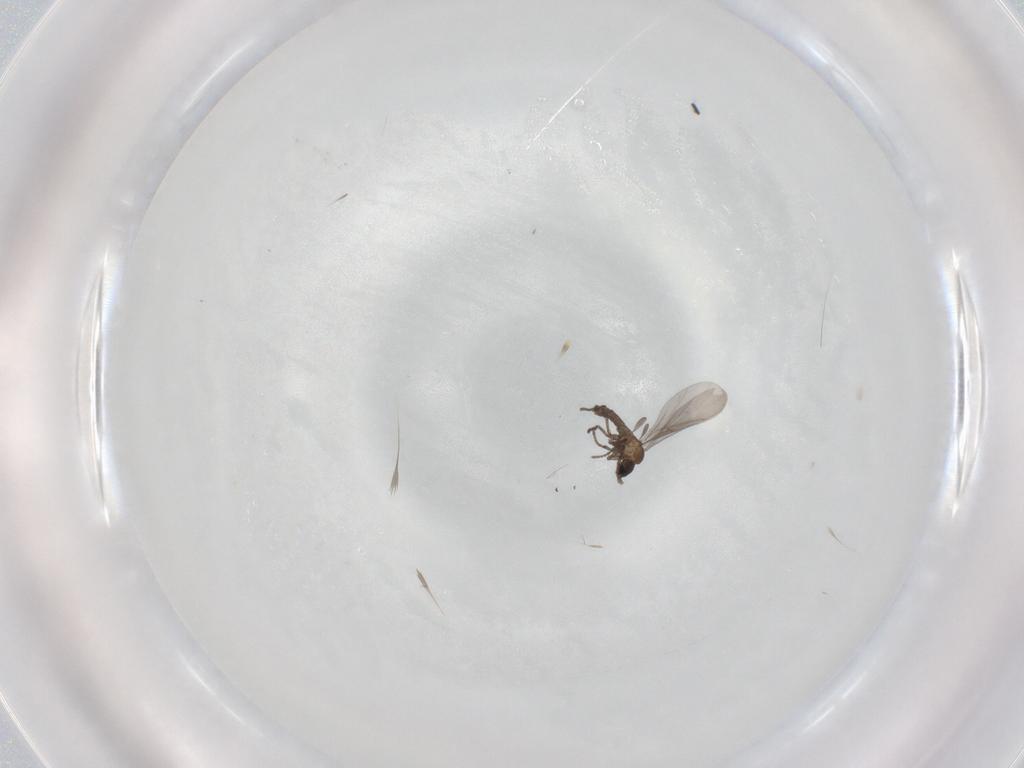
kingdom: Animalia
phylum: Arthropoda
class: Insecta
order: Diptera
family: Sciaridae
